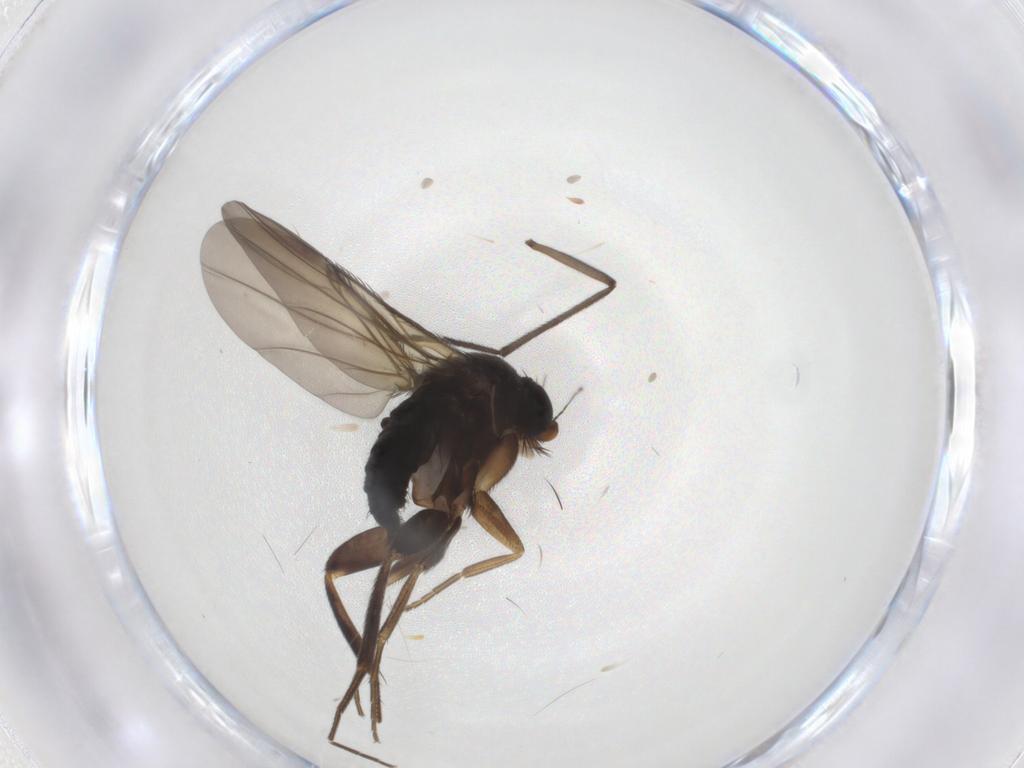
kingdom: Animalia
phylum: Arthropoda
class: Insecta
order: Diptera
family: Phoridae
